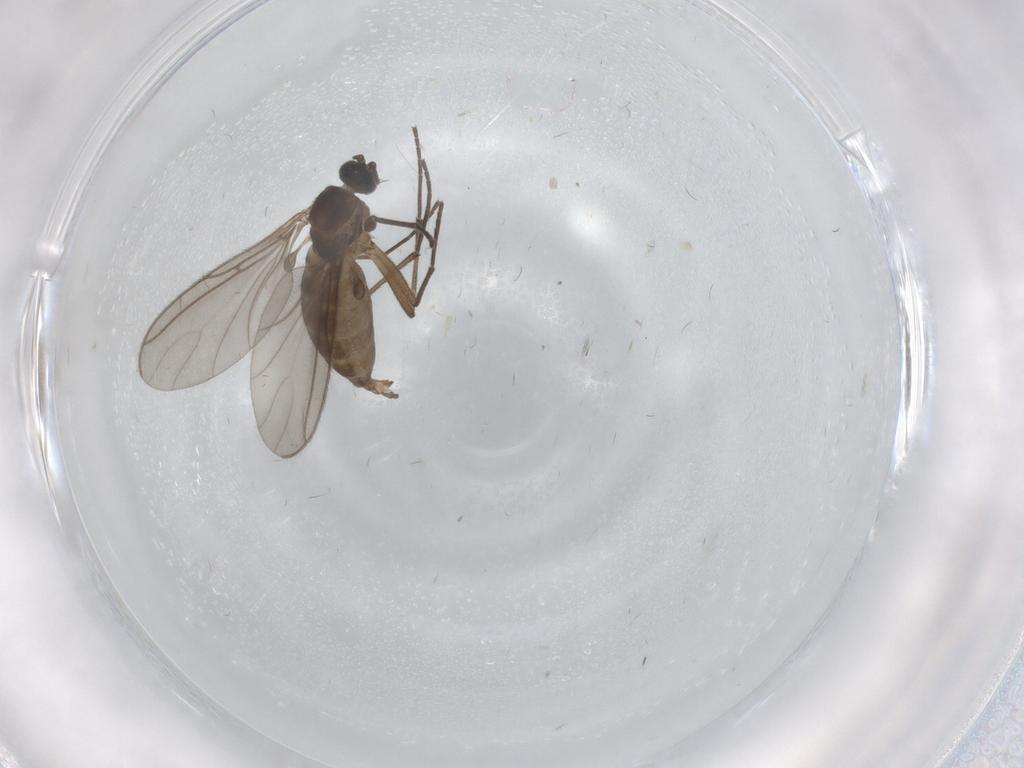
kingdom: Animalia
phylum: Arthropoda
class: Insecta
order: Diptera
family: Cecidomyiidae
